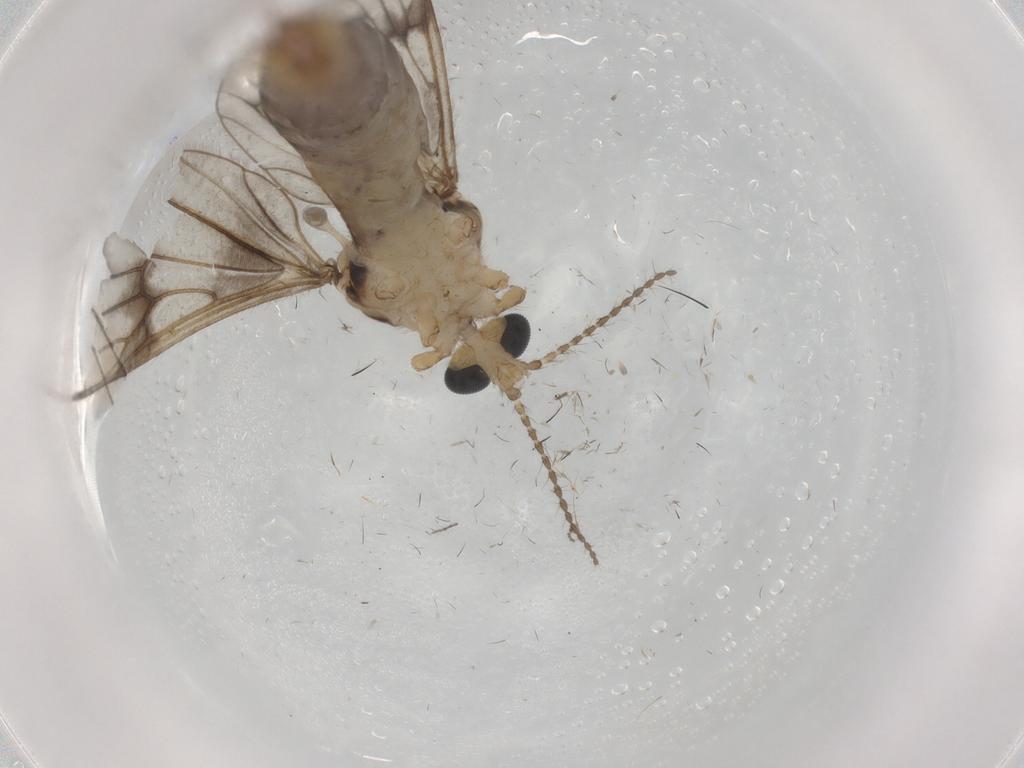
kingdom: Animalia
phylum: Arthropoda
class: Insecta
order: Diptera
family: Limoniidae
